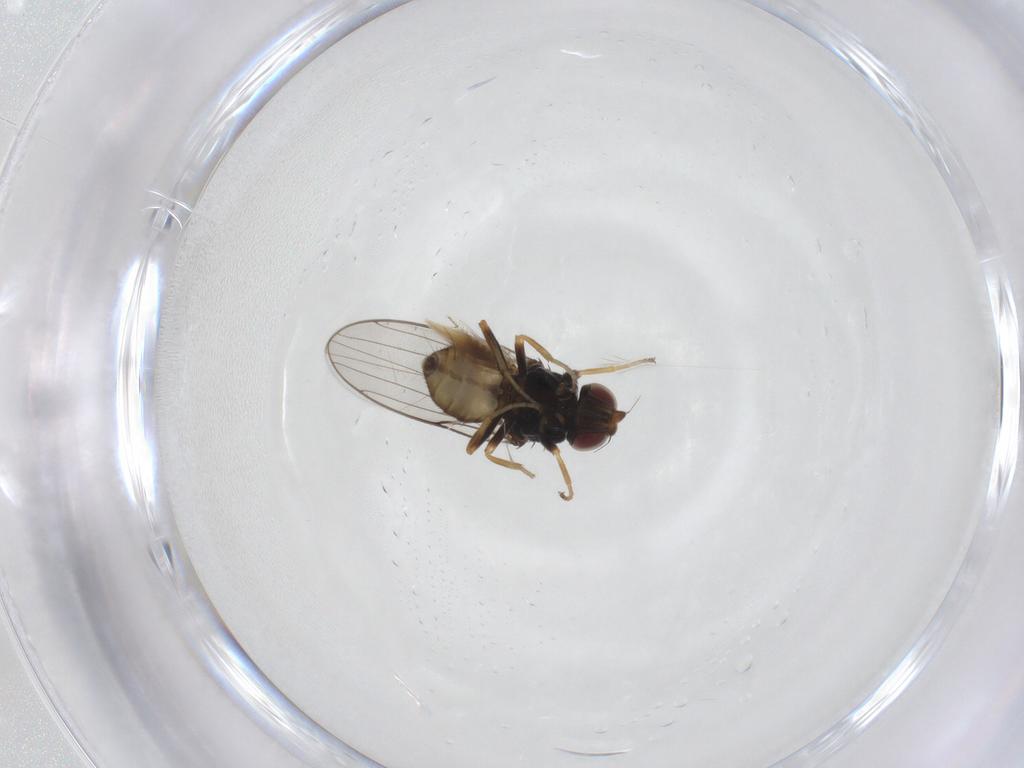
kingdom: Animalia
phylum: Arthropoda
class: Insecta
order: Diptera
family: Chloropidae
